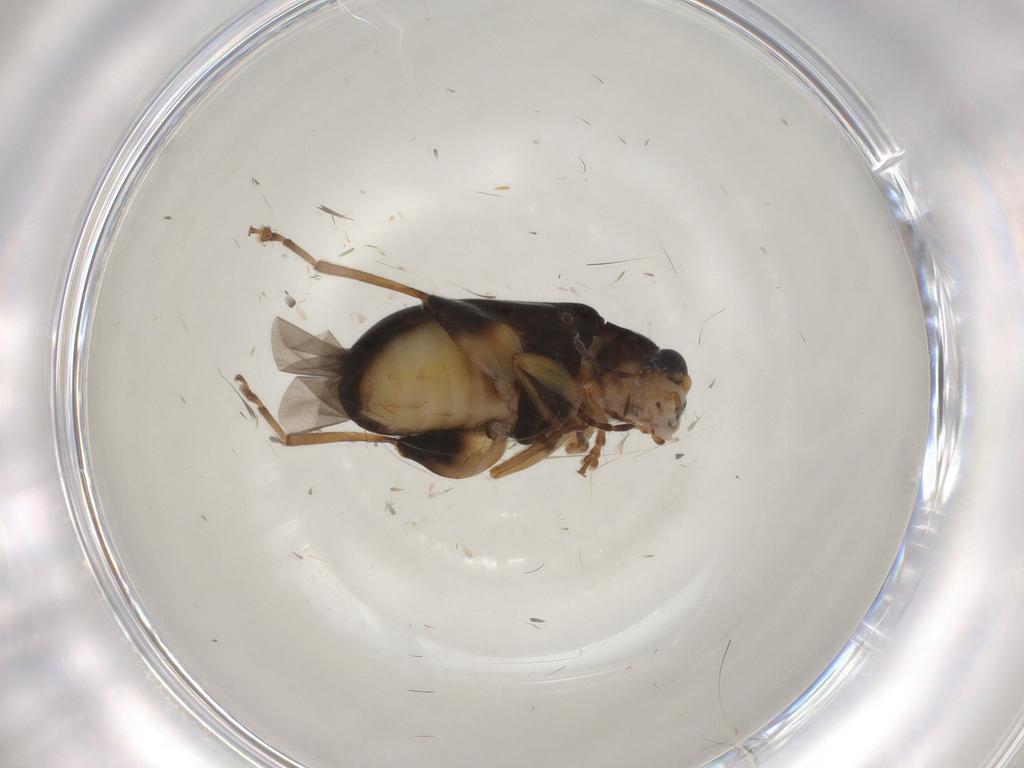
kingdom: Animalia
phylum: Arthropoda
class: Insecta
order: Coleoptera
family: Chrysomelidae
